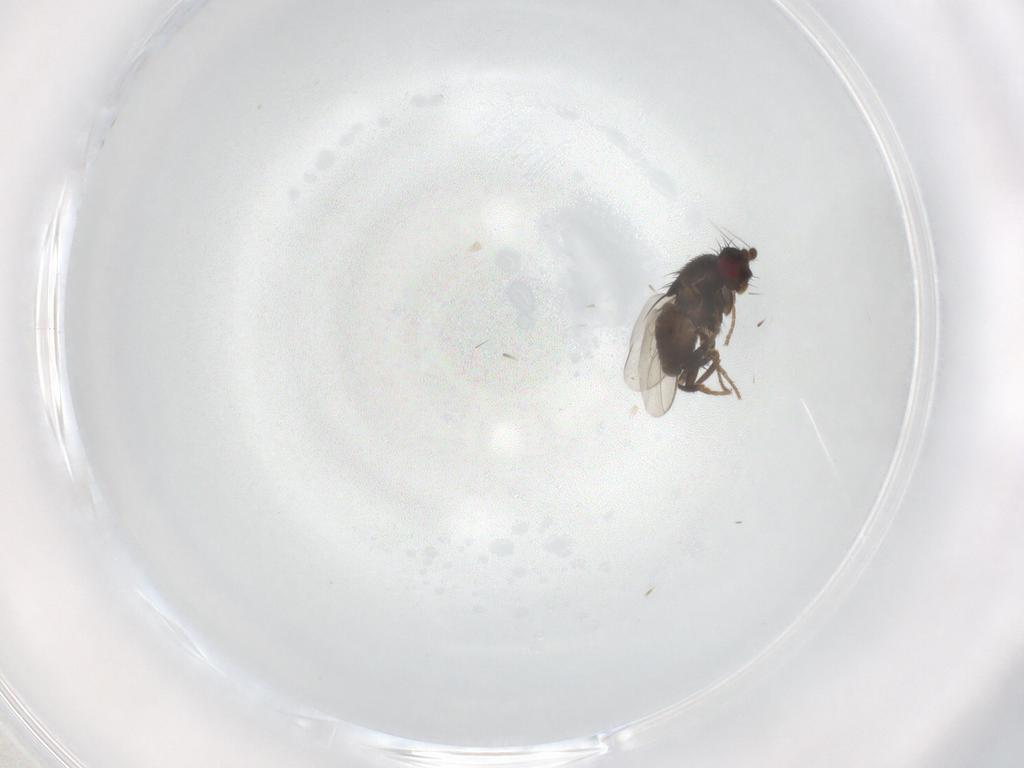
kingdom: Animalia
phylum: Arthropoda
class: Insecta
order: Diptera
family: Sphaeroceridae
